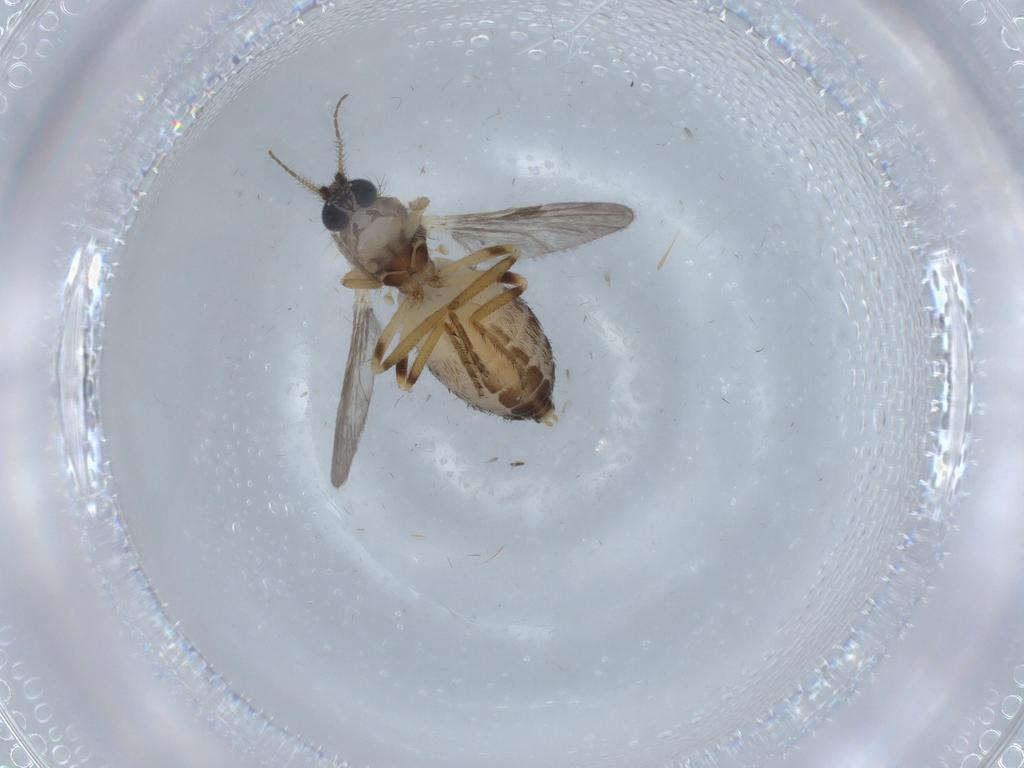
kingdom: Animalia
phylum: Arthropoda
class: Insecta
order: Diptera
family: Ceratopogonidae
